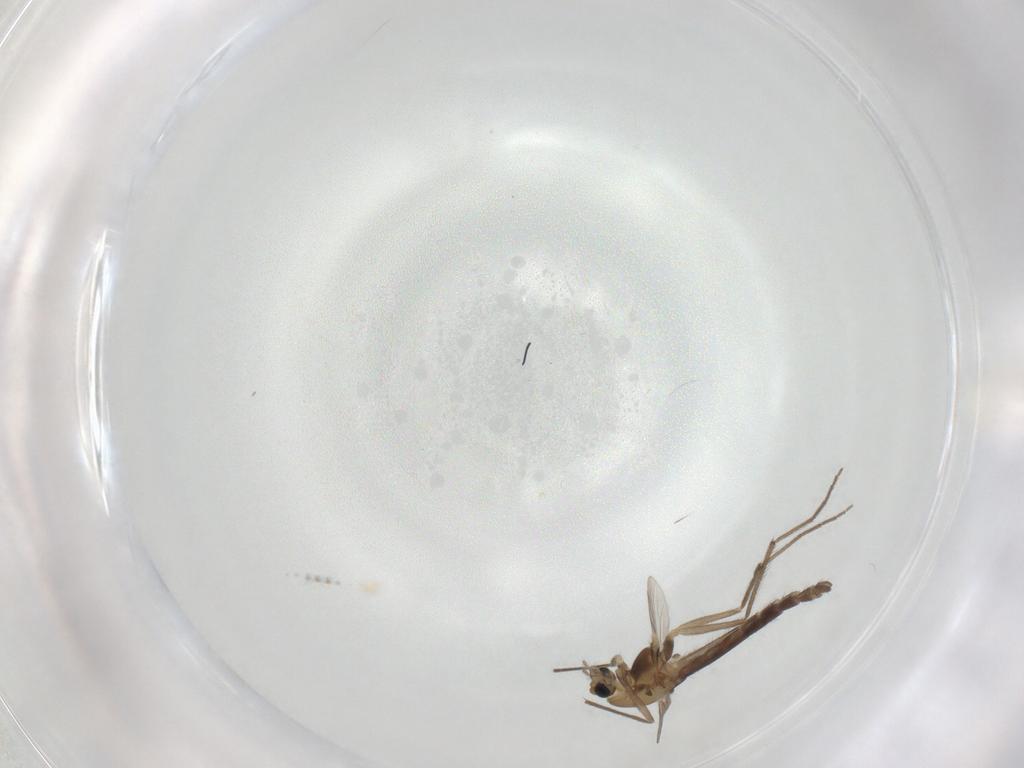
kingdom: Animalia
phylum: Arthropoda
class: Insecta
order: Diptera
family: Chironomidae
